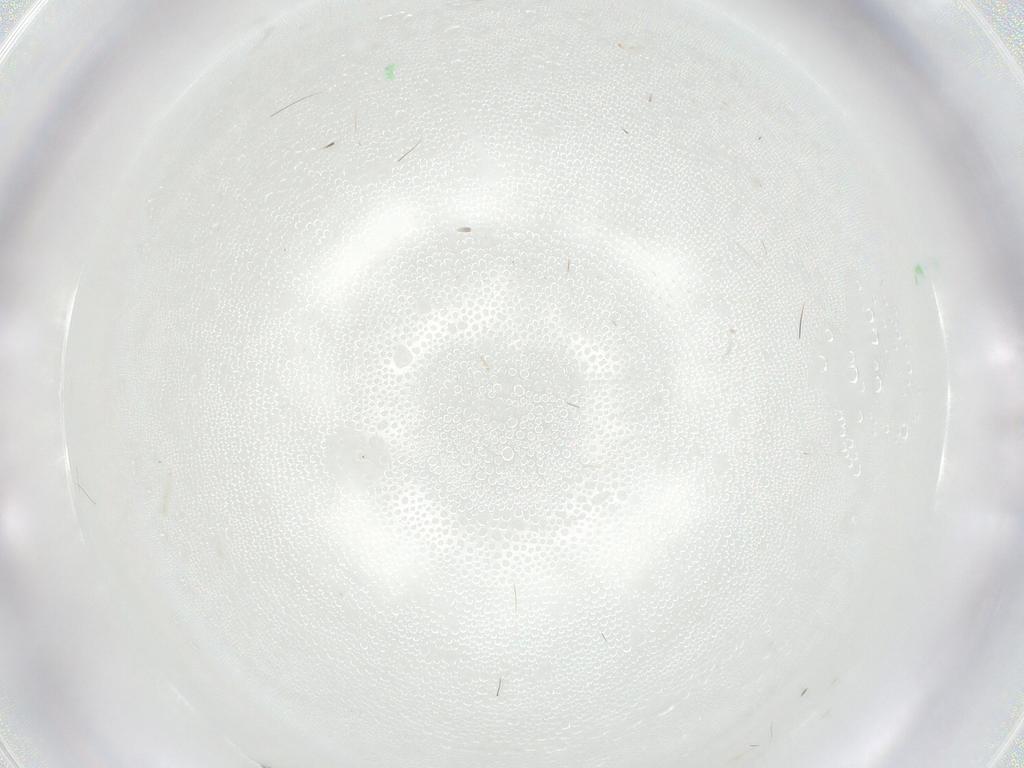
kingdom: Animalia
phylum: Arthropoda
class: Arachnida
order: Mesostigmata
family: Phytoseiidae
